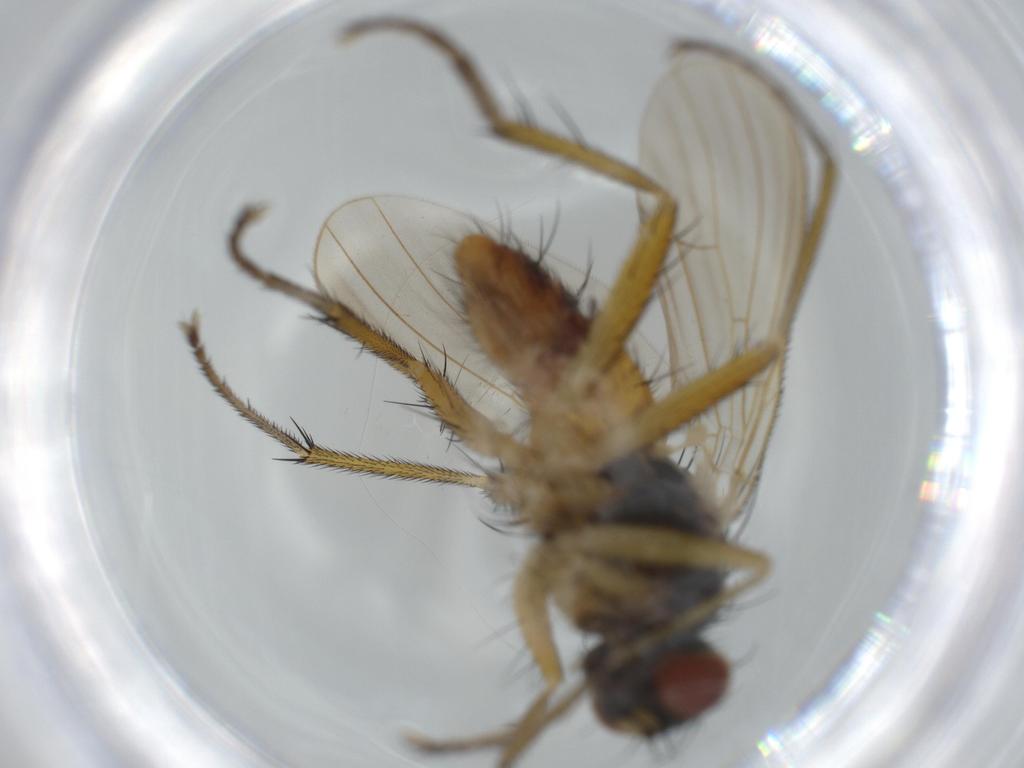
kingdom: Animalia
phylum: Arthropoda
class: Insecta
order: Diptera
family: Muscidae
